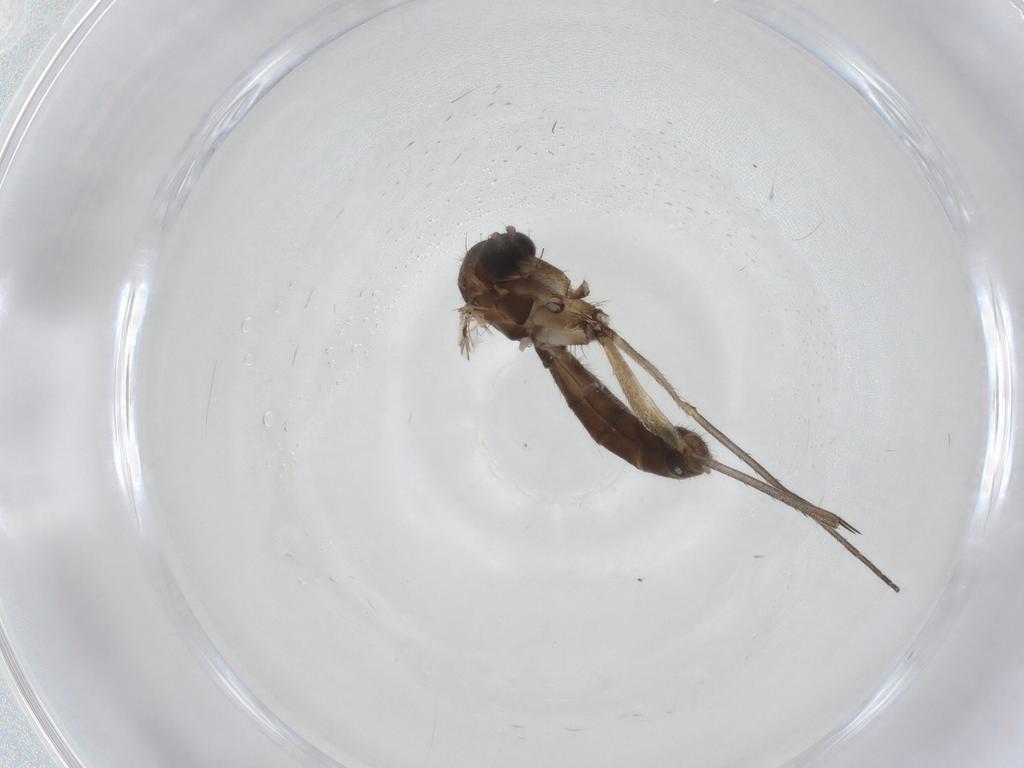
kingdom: Animalia
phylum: Arthropoda
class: Insecta
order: Diptera
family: Mycetophilidae
